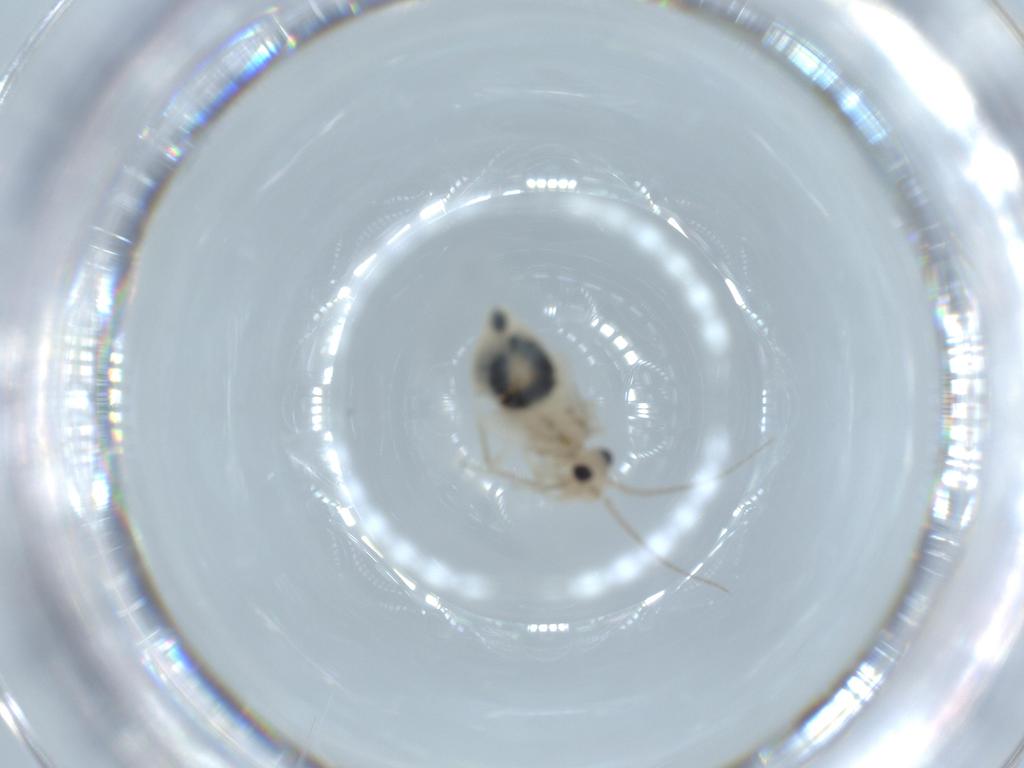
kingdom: Animalia
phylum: Arthropoda
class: Insecta
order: Psocodea
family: Caeciliusidae
